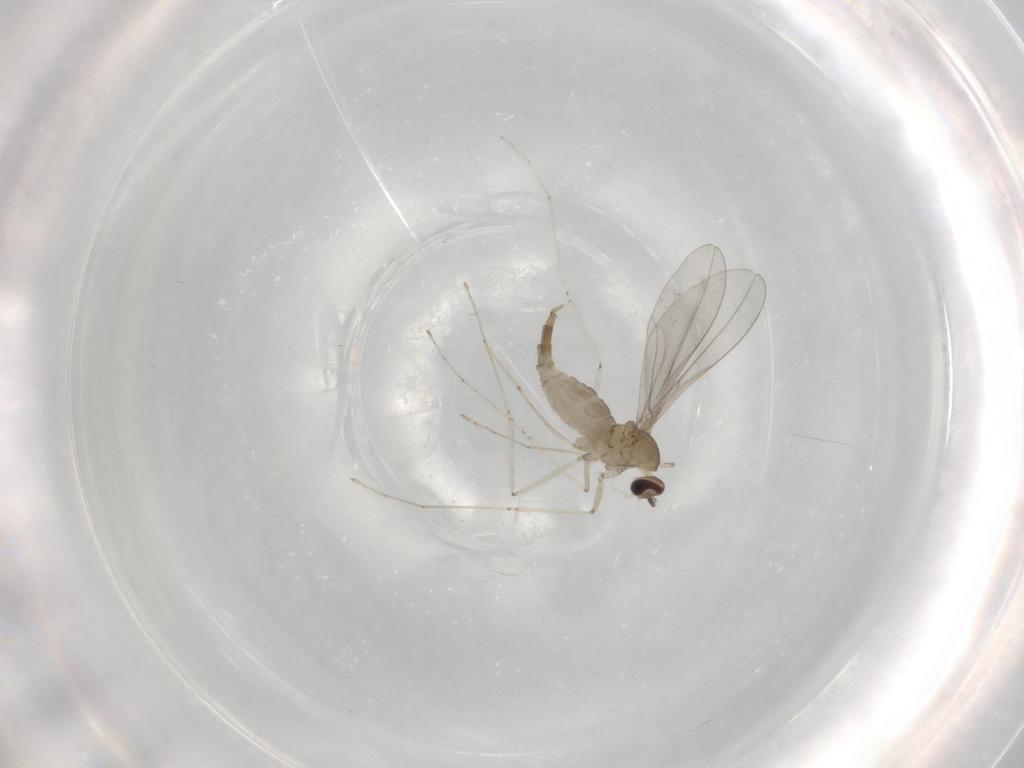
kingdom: Animalia
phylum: Arthropoda
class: Insecta
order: Diptera
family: Cecidomyiidae
